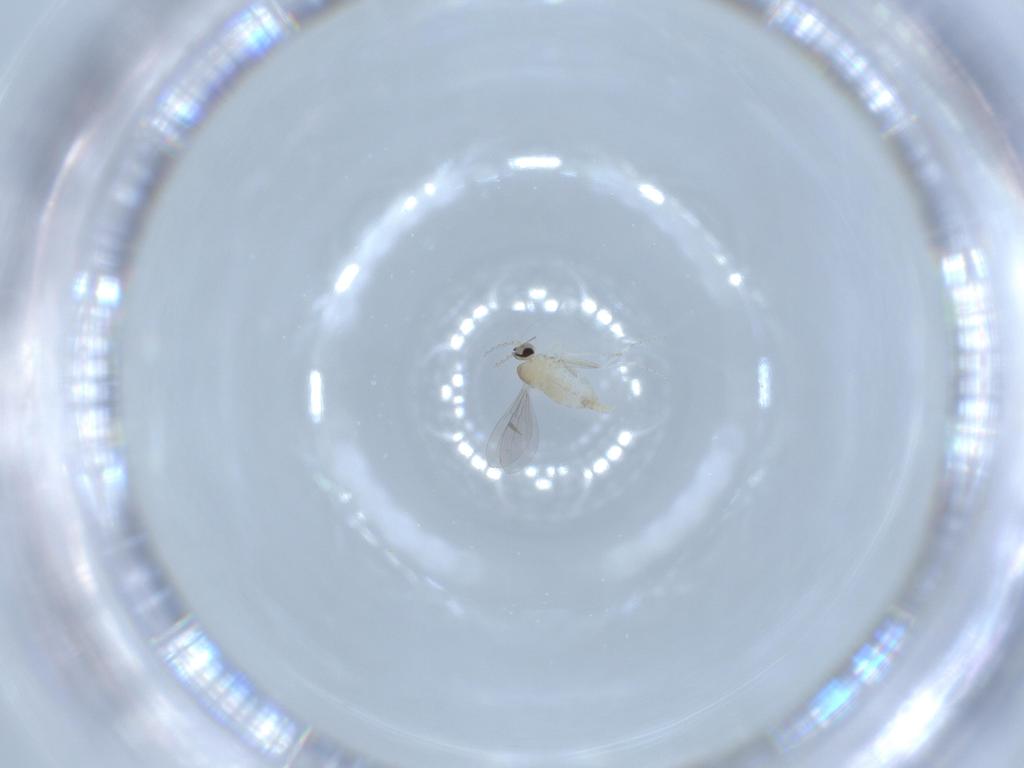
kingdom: Animalia
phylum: Arthropoda
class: Insecta
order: Diptera
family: Cecidomyiidae
